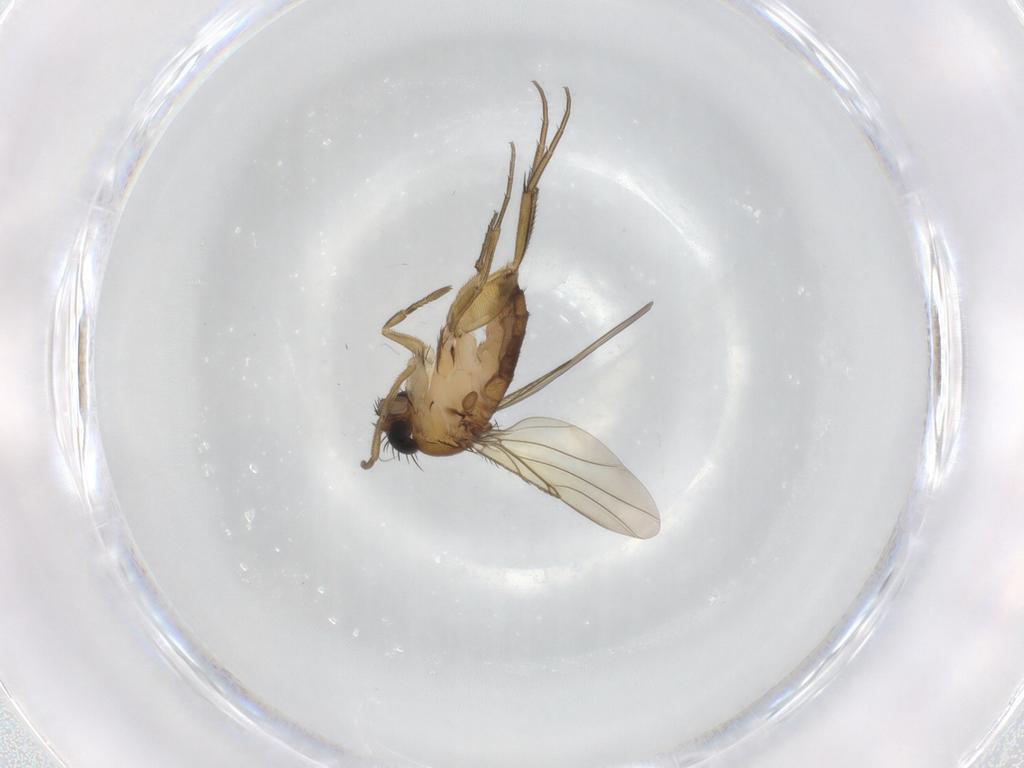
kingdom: Animalia
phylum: Arthropoda
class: Insecta
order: Diptera
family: Phoridae
